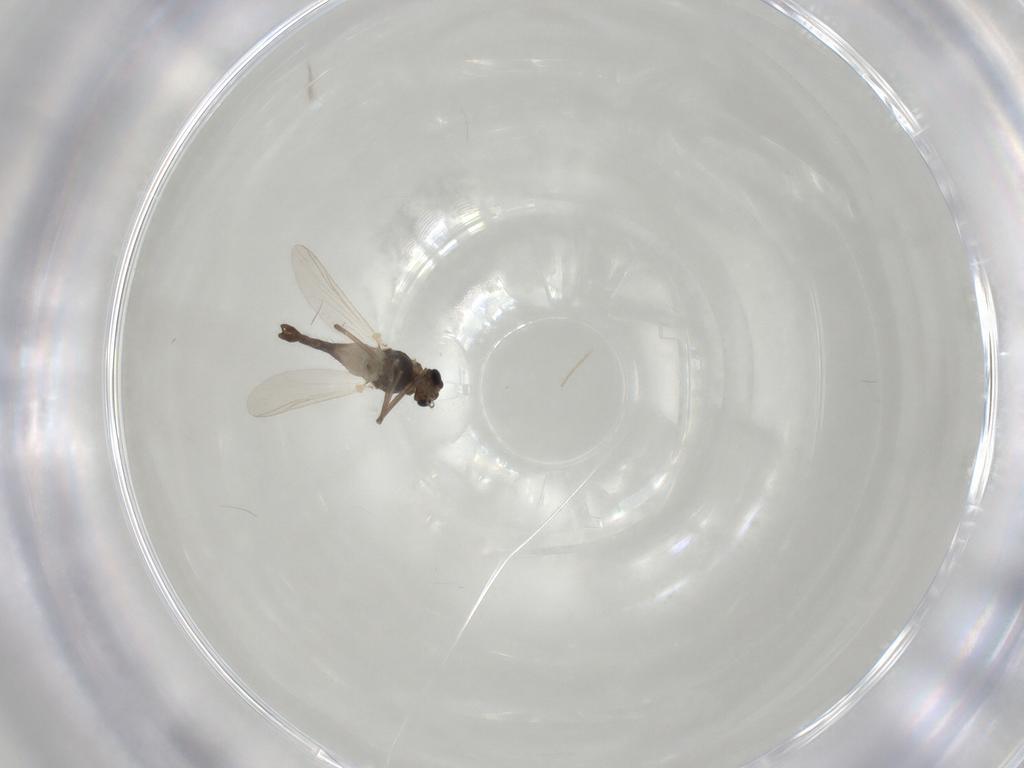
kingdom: Animalia
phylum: Arthropoda
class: Insecta
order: Diptera
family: Chironomidae
